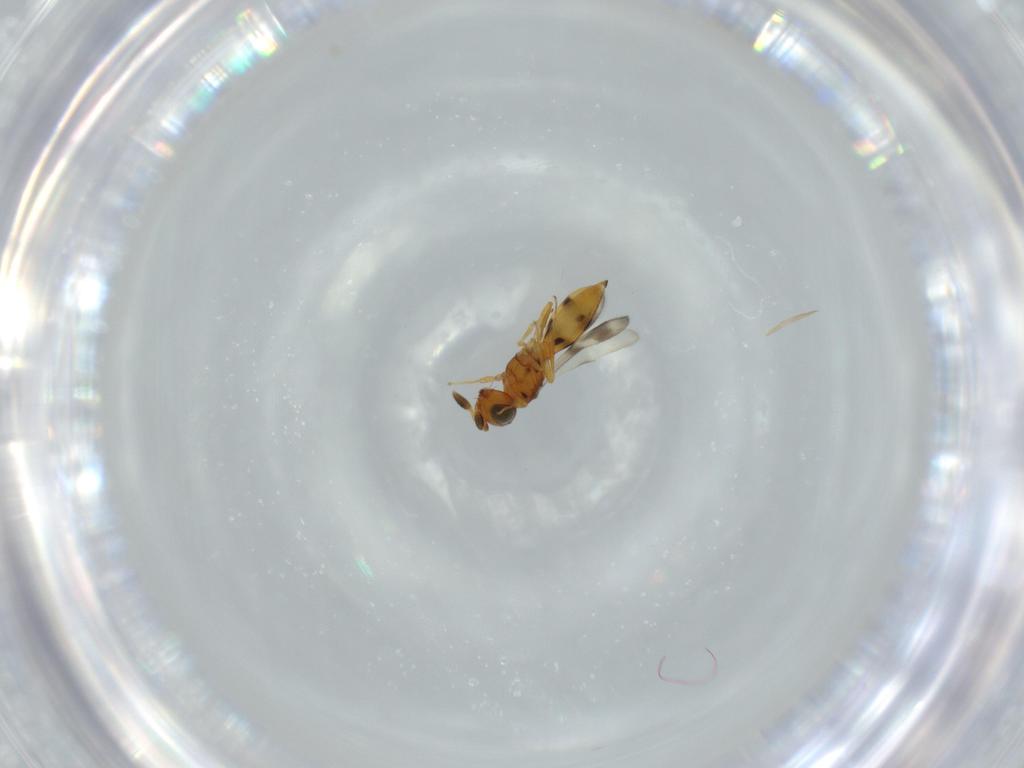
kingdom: Animalia
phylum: Arthropoda
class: Insecta
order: Hymenoptera
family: Scelionidae
